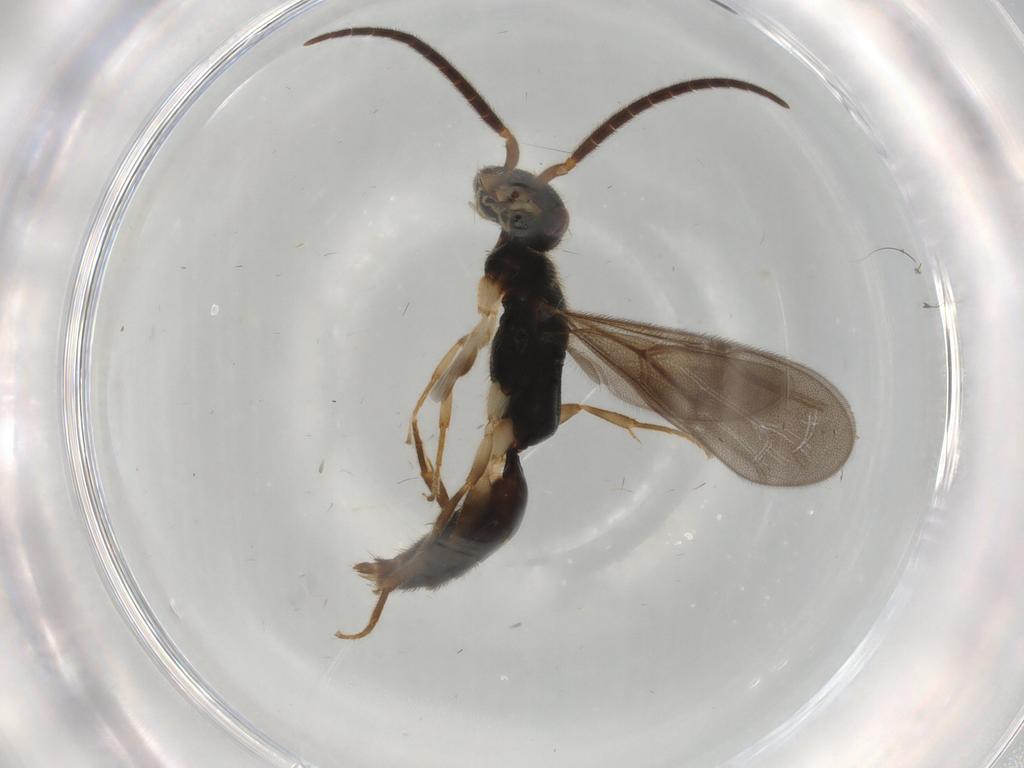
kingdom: Animalia
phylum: Arthropoda
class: Insecta
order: Hymenoptera
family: Bethylidae
